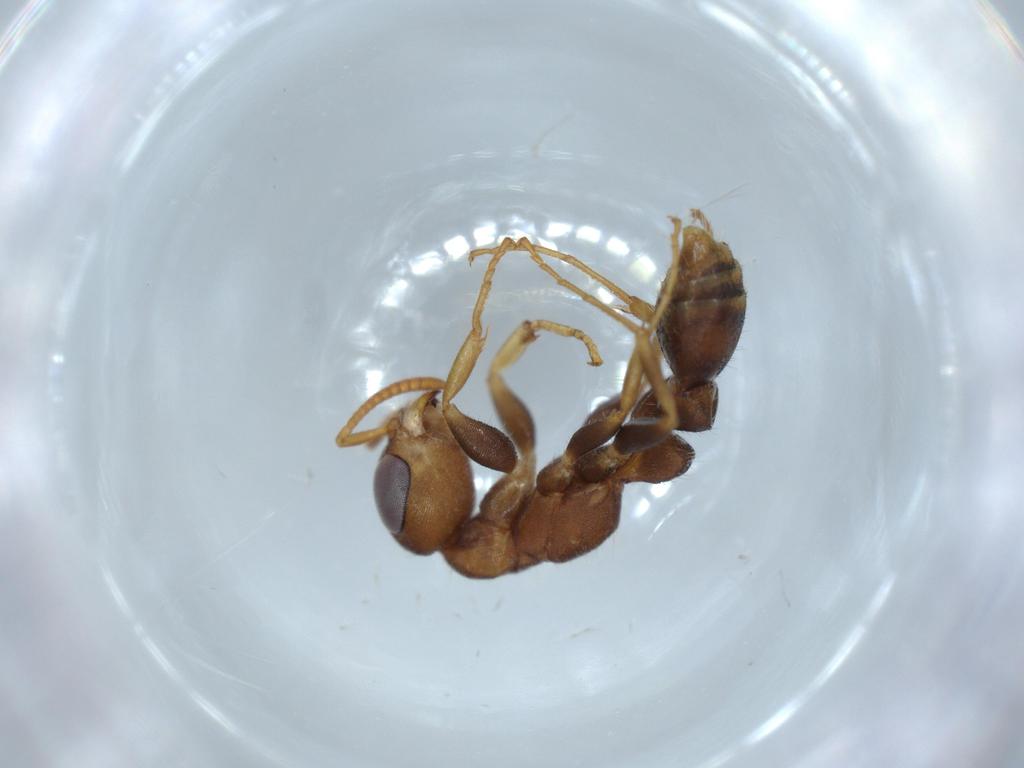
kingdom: Animalia
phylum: Arthropoda
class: Insecta
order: Hymenoptera
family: Formicidae
